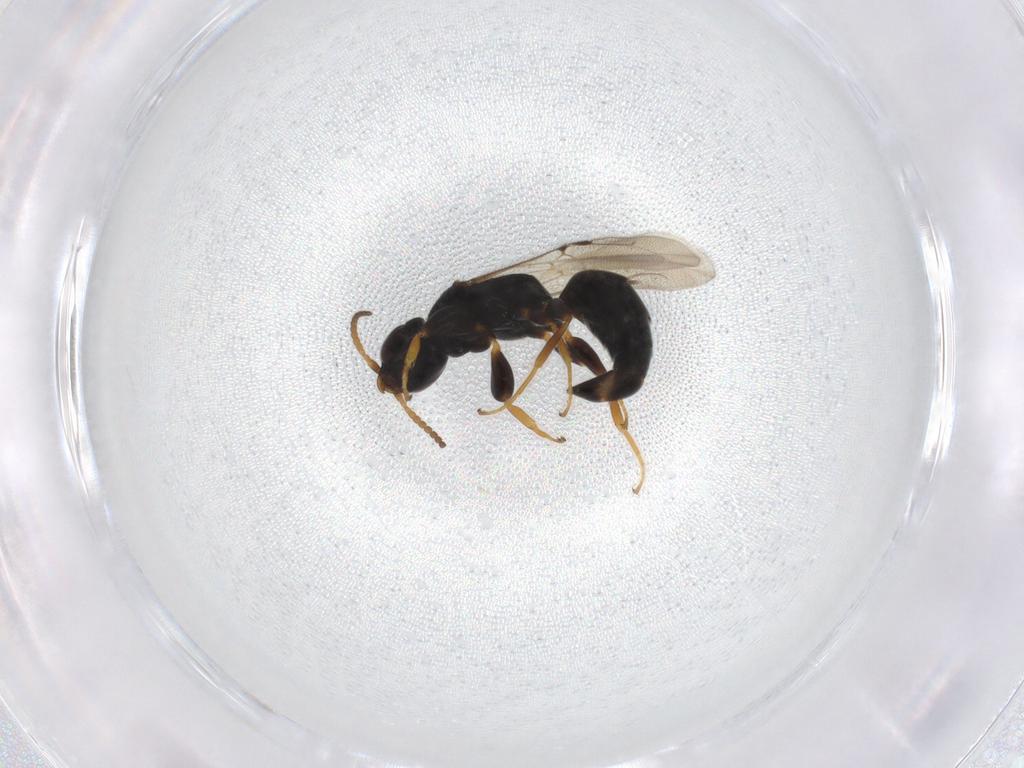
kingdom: Animalia
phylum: Arthropoda
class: Insecta
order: Hymenoptera
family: Bethylidae
